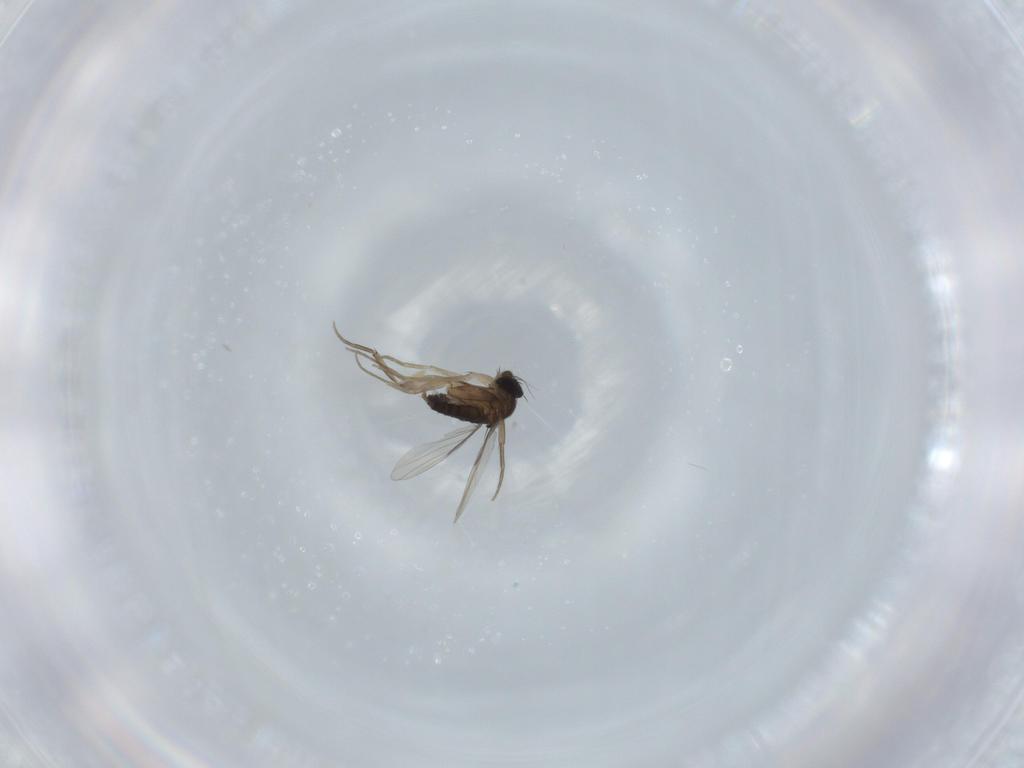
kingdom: Animalia
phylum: Arthropoda
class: Insecta
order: Diptera
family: Phoridae
